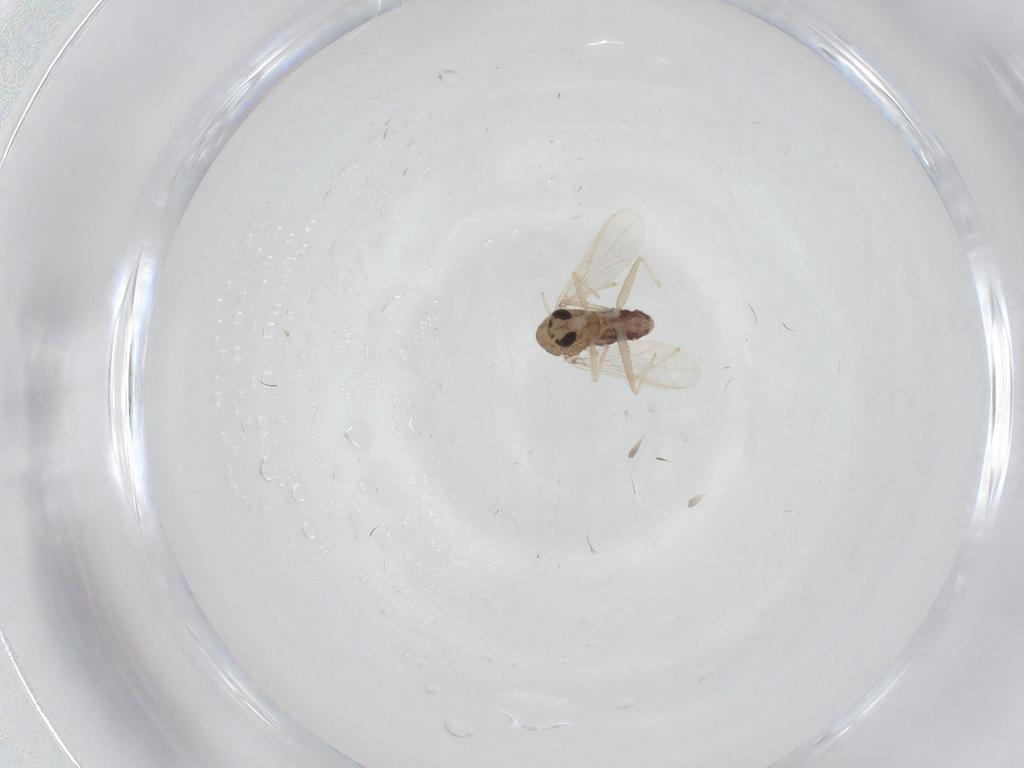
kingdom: Animalia
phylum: Arthropoda
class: Insecta
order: Diptera
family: Chironomidae
